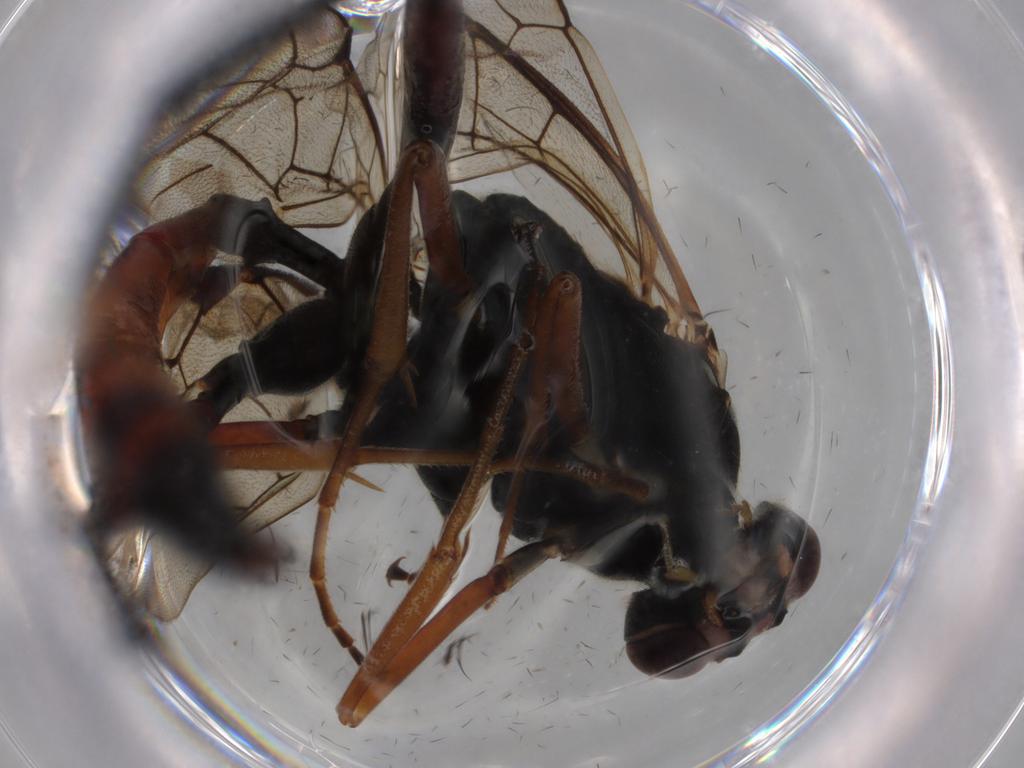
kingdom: Animalia
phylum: Arthropoda
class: Insecta
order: Hymenoptera
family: Ichneumonidae
